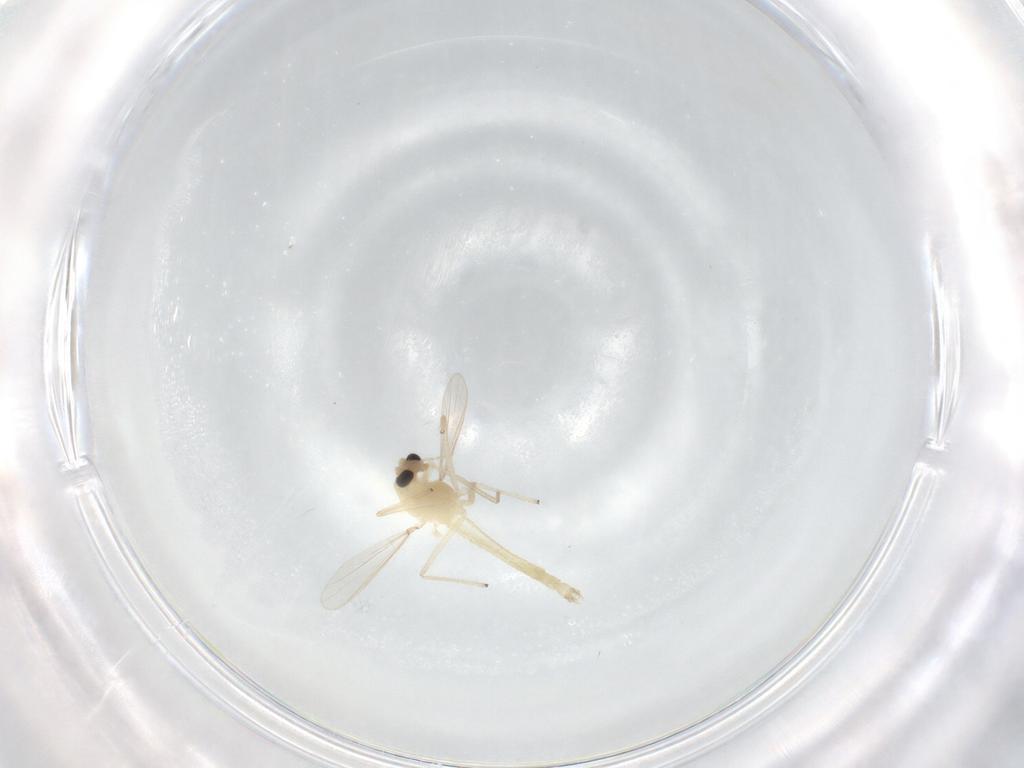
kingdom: Animalia
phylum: Arthropoda
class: Insecta
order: Diptera
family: Chironomidae
